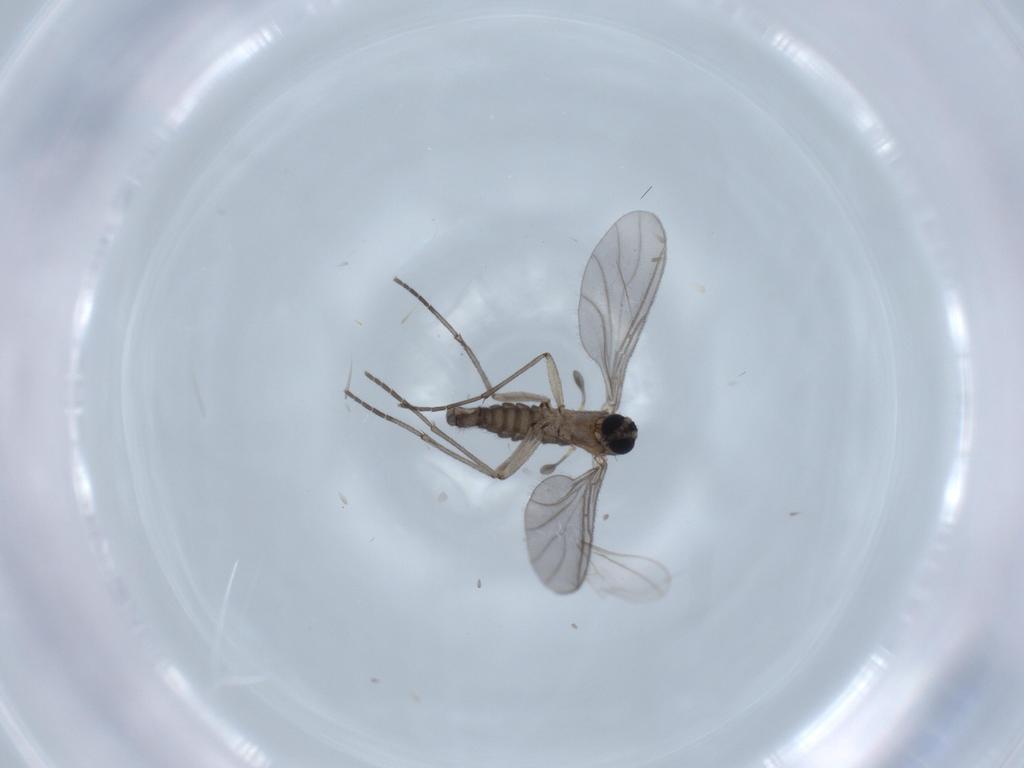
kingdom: Animalia
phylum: Arthropoda
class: Insecta
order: Diptera
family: Sciaridae
